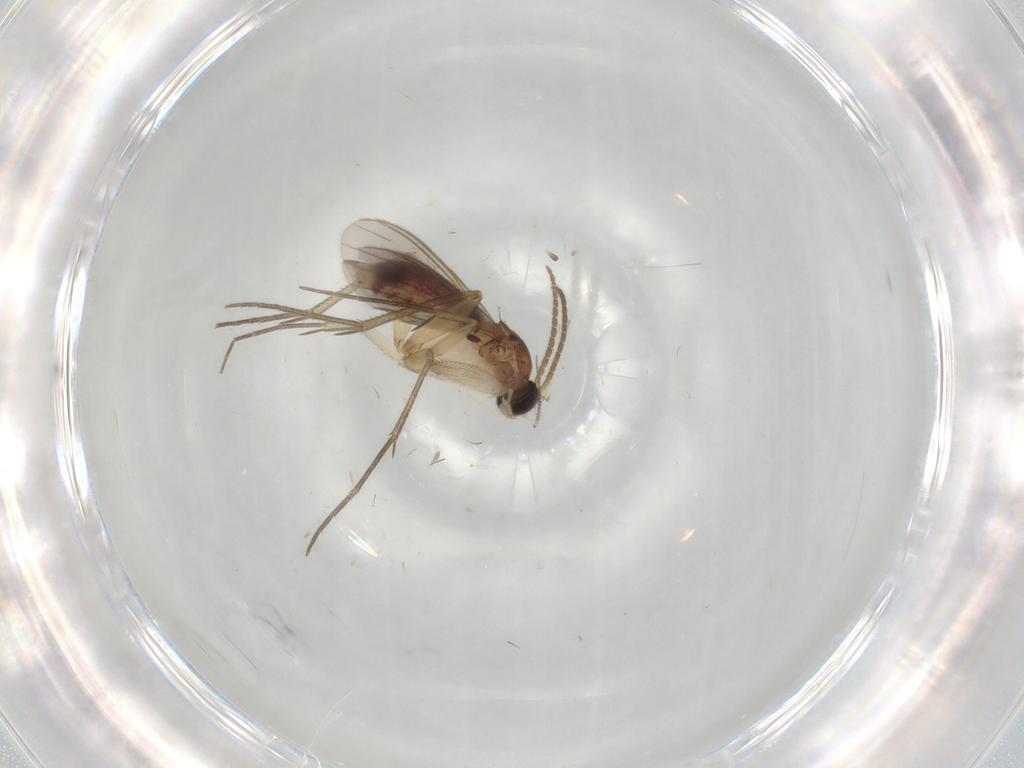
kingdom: Animalia
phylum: Arthropoda
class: Insecta
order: Diptera
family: Mycetophilidae
